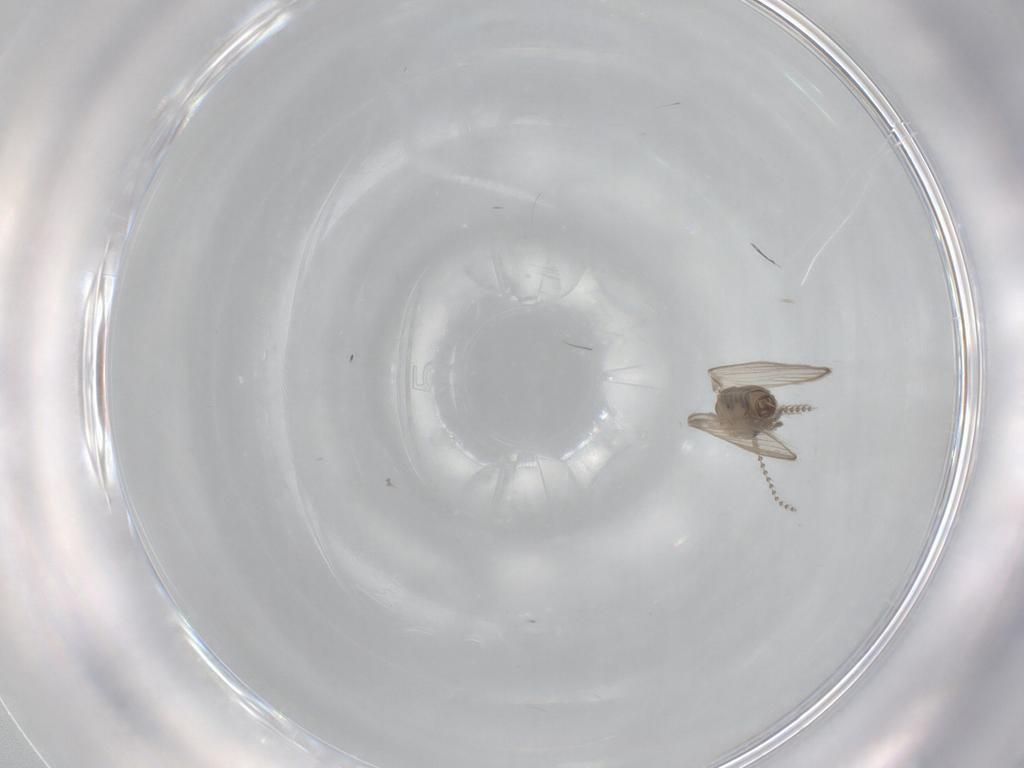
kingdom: Animalia
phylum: Arthropoda
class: Insecta
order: Diptera
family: Psychodidae
